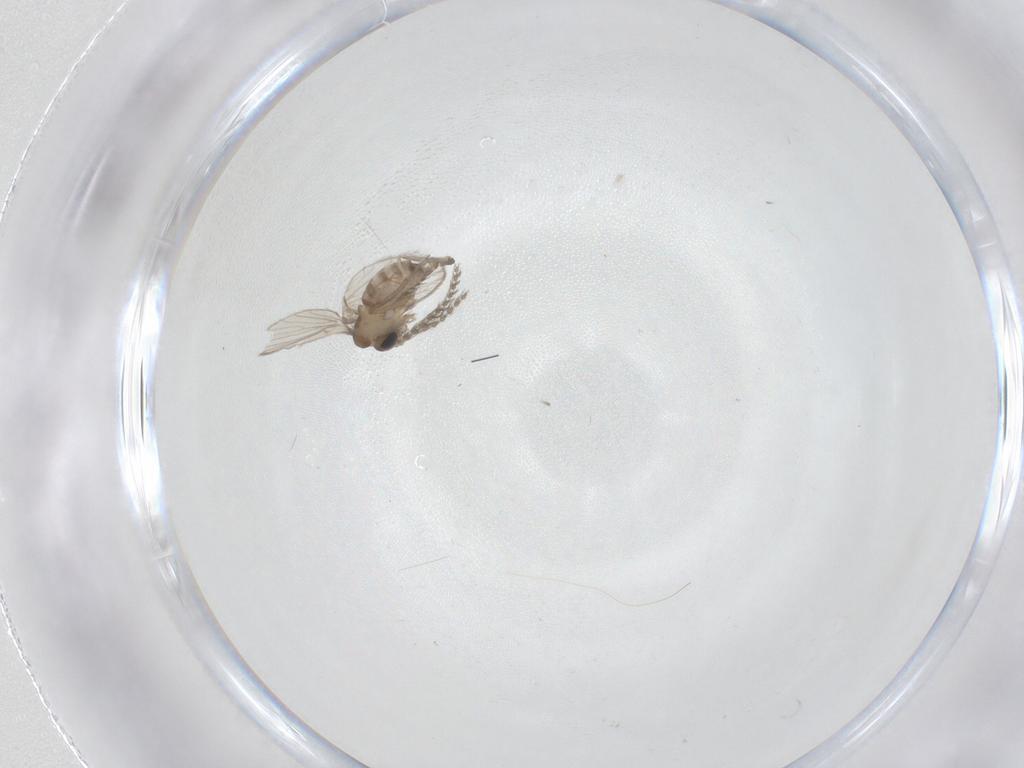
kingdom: Animalia
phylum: Arthropoda
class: Insecta
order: Diptera
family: Cecidomyiidae
